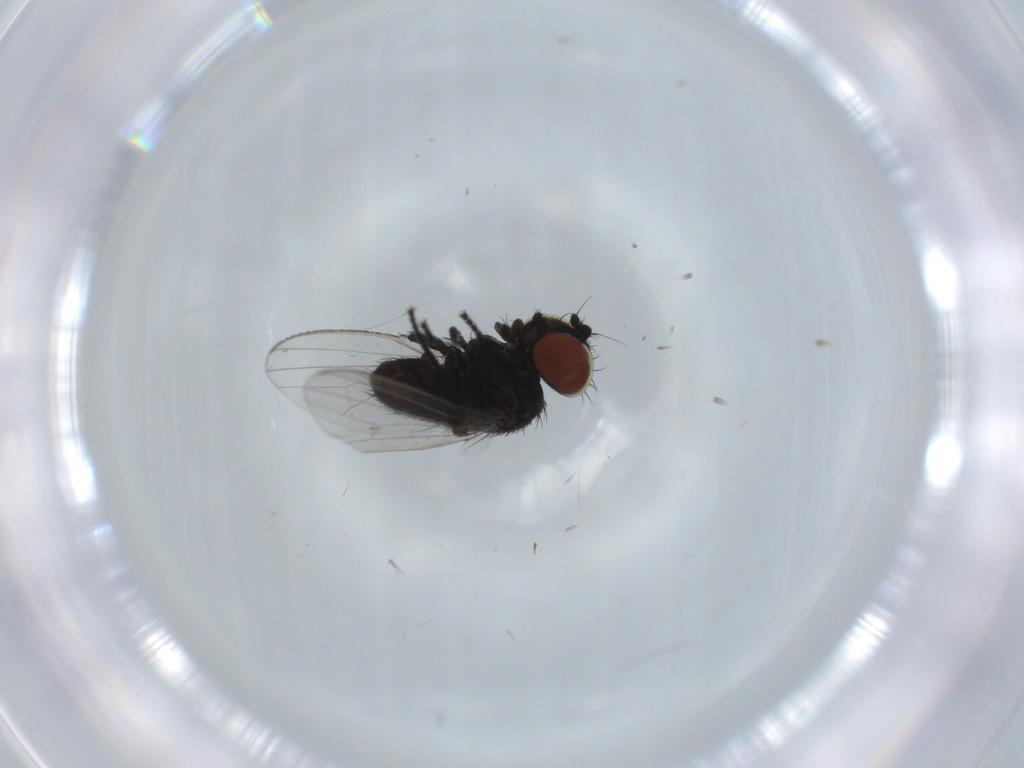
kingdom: Animalia
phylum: Arthropoda
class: Insecta
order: Diptera
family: Milichiidae
